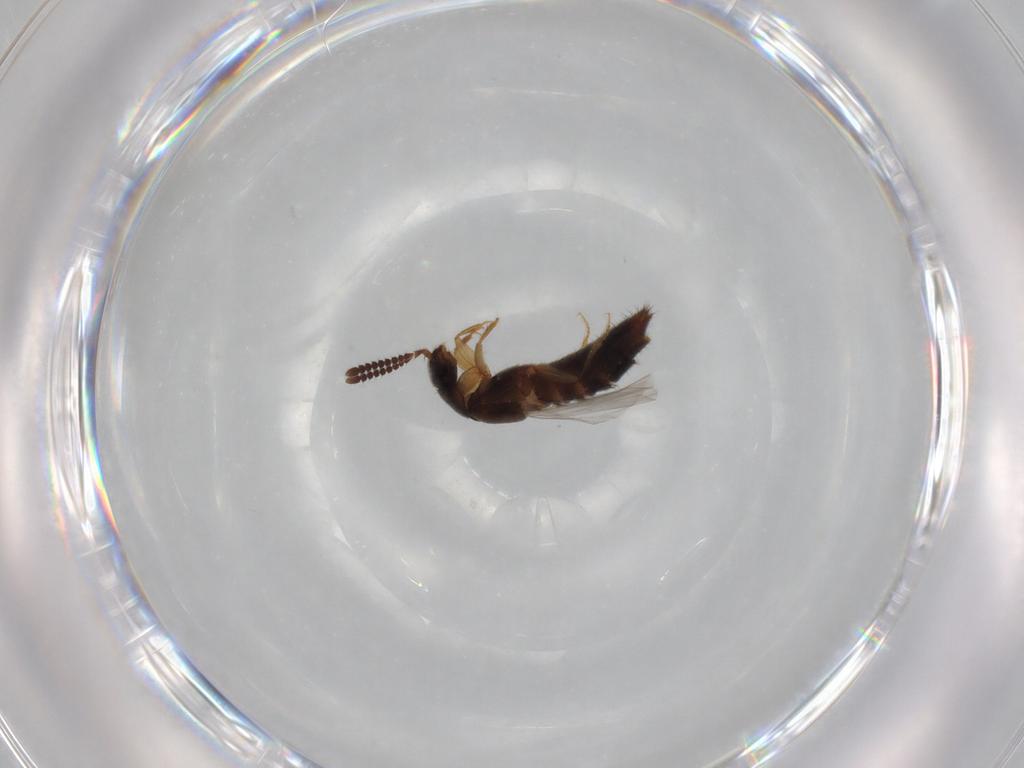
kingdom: Animalia
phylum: Arthropoda
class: Insecta
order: Coleoptera
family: Staphylinidae
